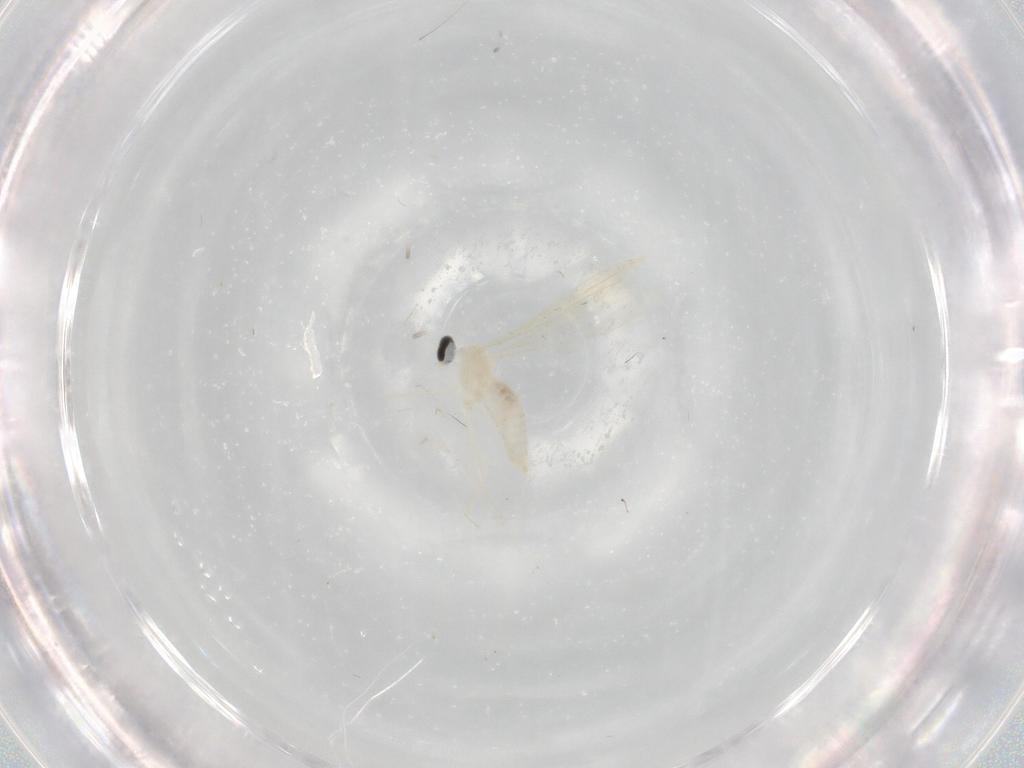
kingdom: Animalia
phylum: Arthropoda
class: Insecta
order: Diptera
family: Cecidomyiidae
